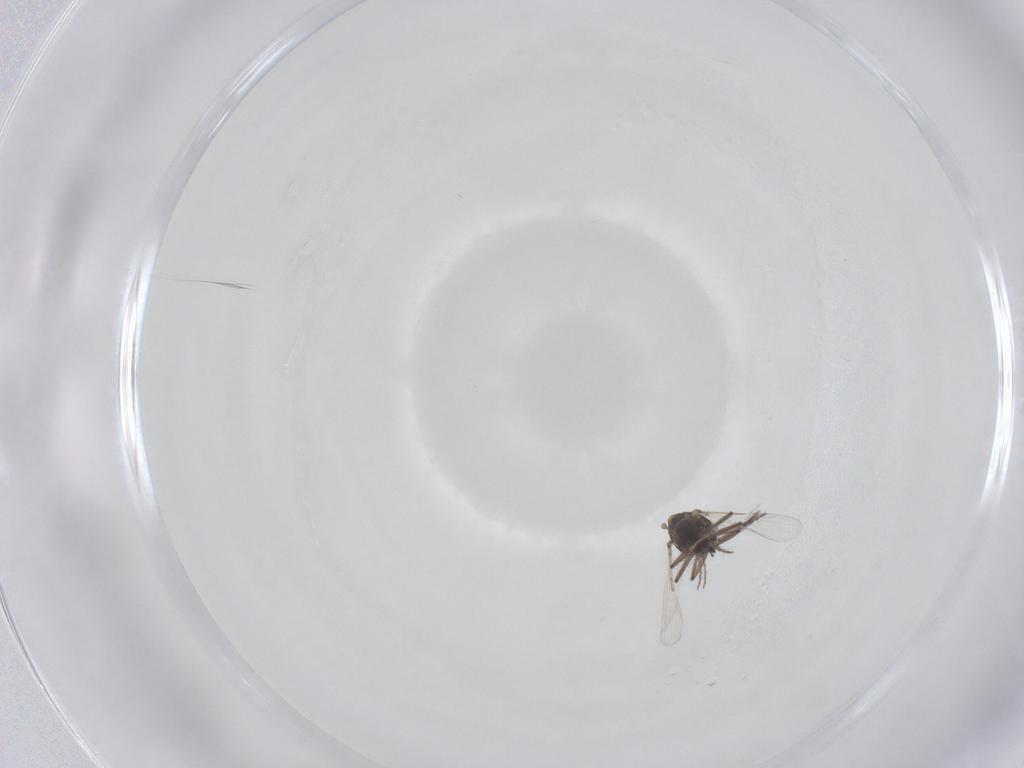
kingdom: Animalia
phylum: Arthropoda
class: Insecta
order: Diptera
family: Ceratopogonidae
